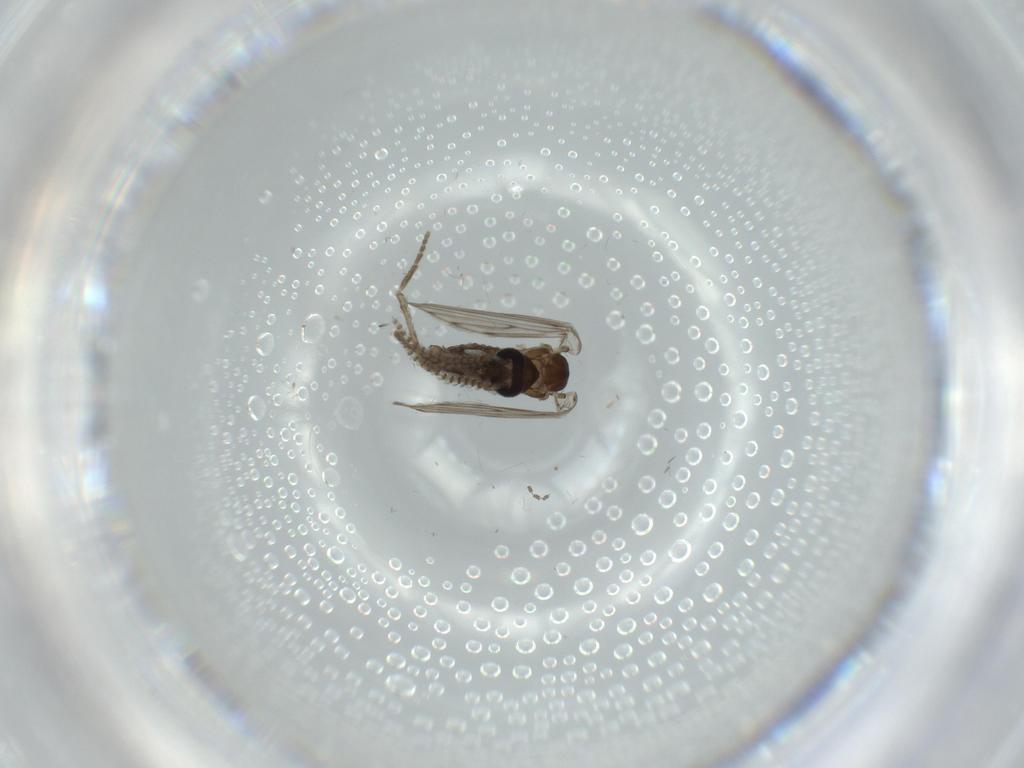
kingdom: Animalia
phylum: Arthropoda
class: Insecta
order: Diptera
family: Psychodidae
